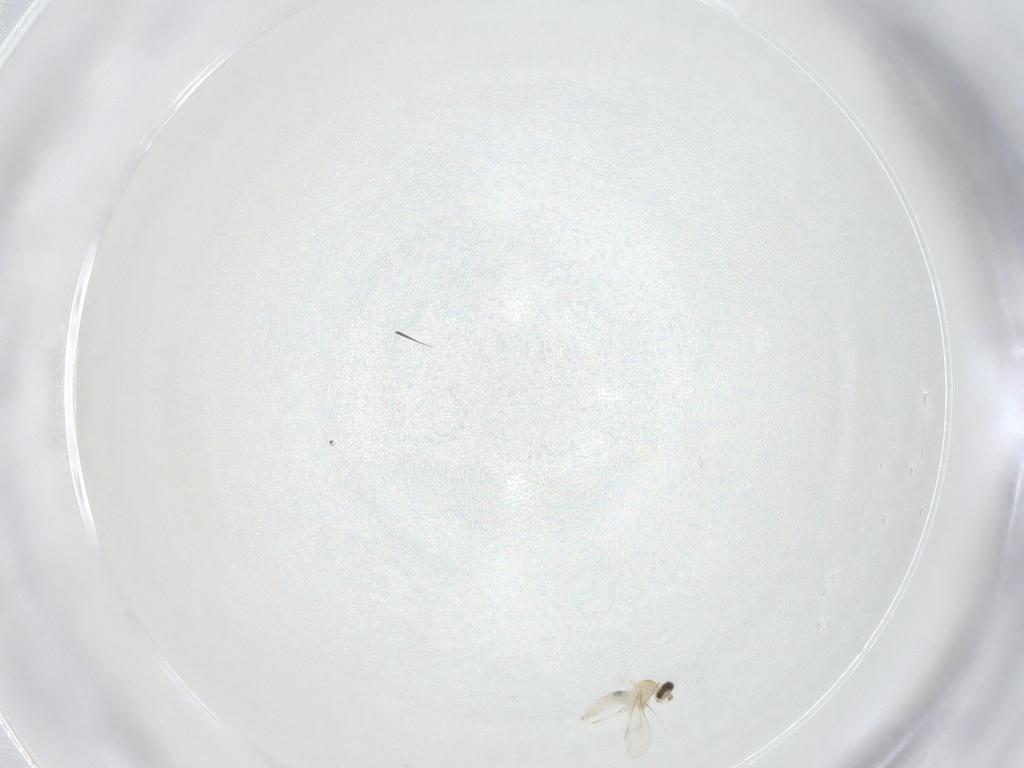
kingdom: Animalia
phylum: Arthropoda
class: Insecta
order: Diptera
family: Cecidomyiidae
